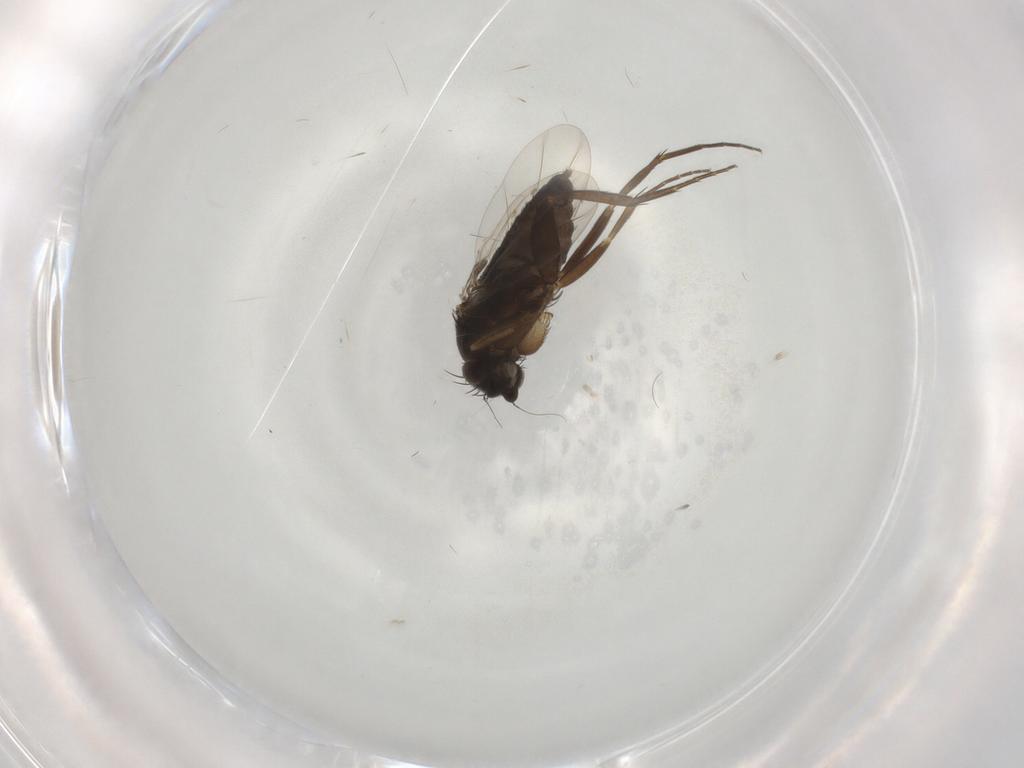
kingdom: Animalia
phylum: Arthropoda
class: Insecta
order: Diptera
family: Phoridae
